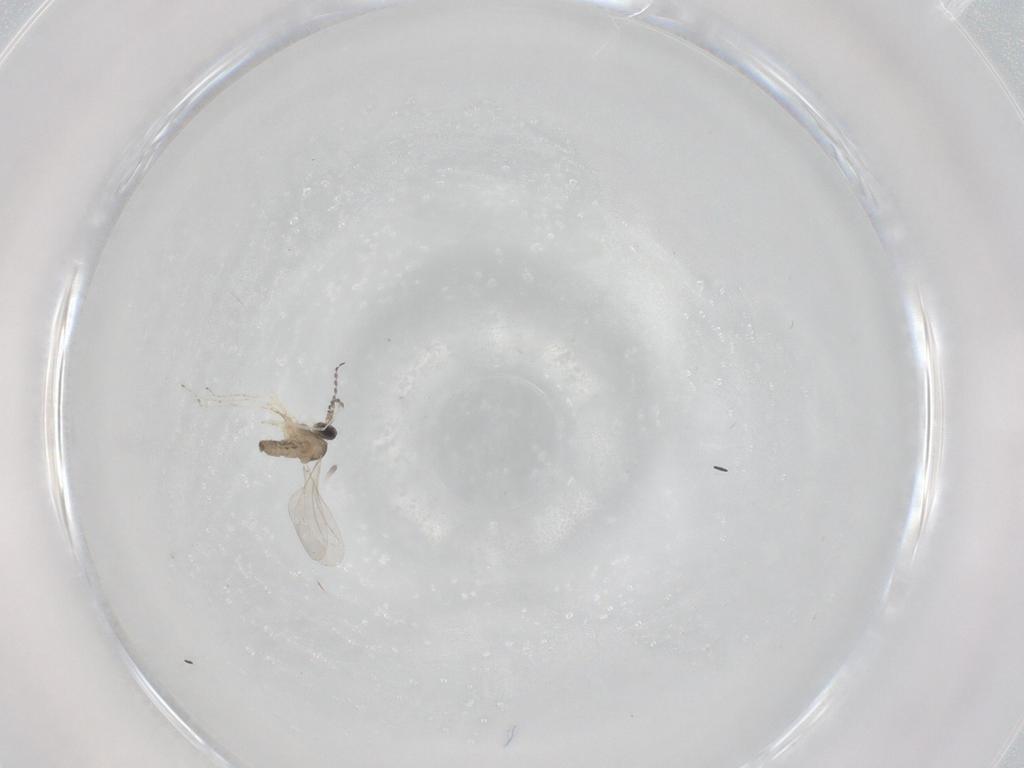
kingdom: Animalia
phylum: Arthropoda
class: Insecta
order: Diptera
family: Cecidomyiidae
